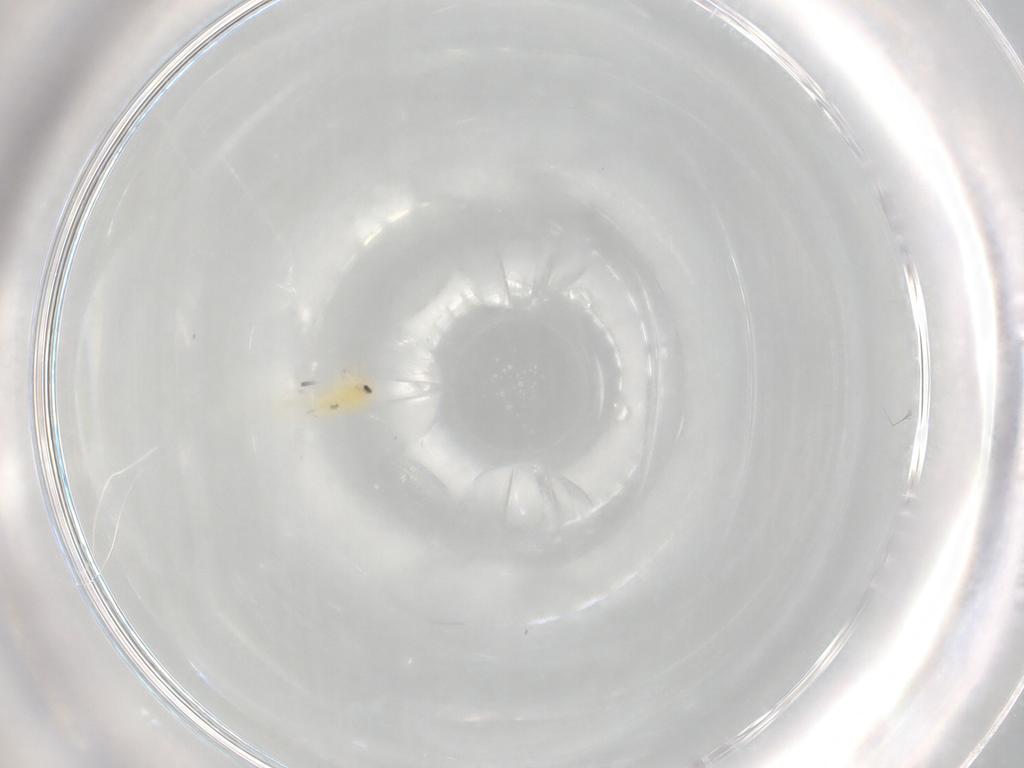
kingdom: Animalia
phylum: Arthropoda
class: Insecta
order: Hemiptera
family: Aleyrodidae
